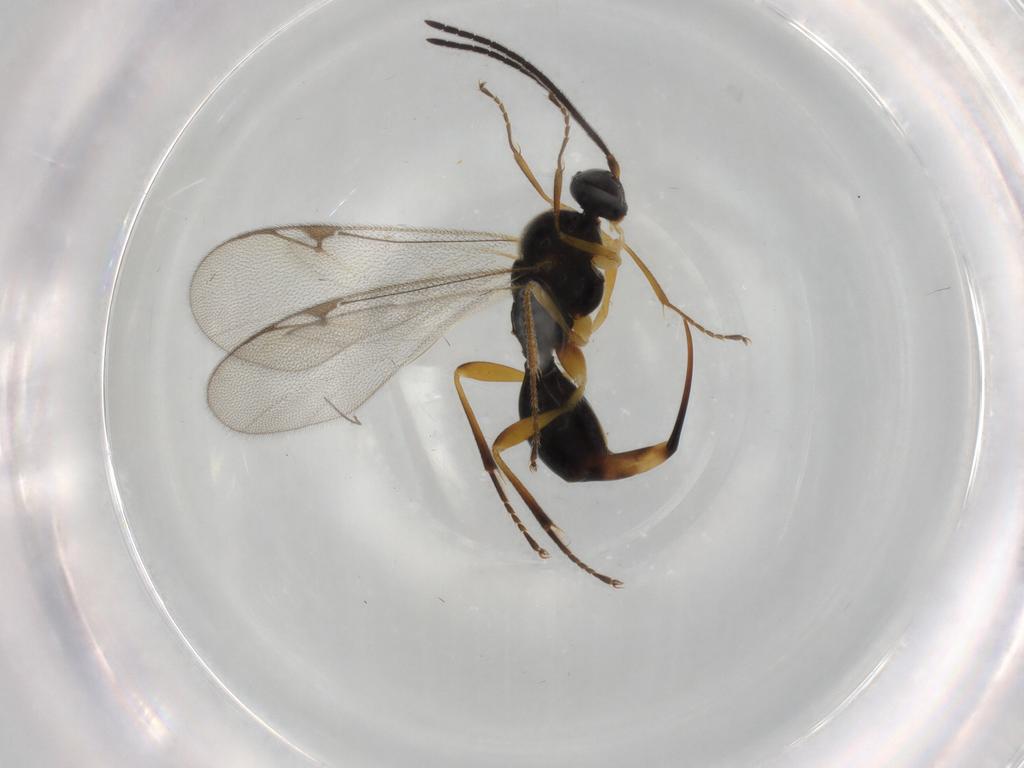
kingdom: Animalia
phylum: Arthropoda
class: Insecta
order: Hymenoptera
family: Proctotrupidae
